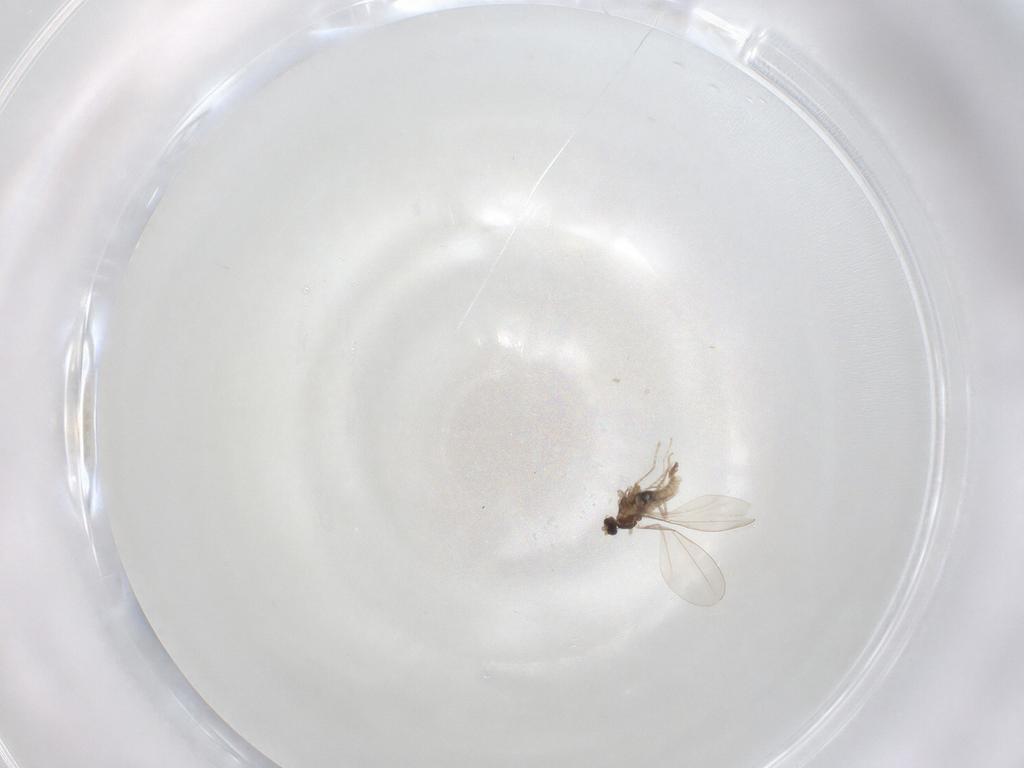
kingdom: Animalia
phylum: Arthropoda
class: Insecta
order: Diptera
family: Cecidomyiidae
